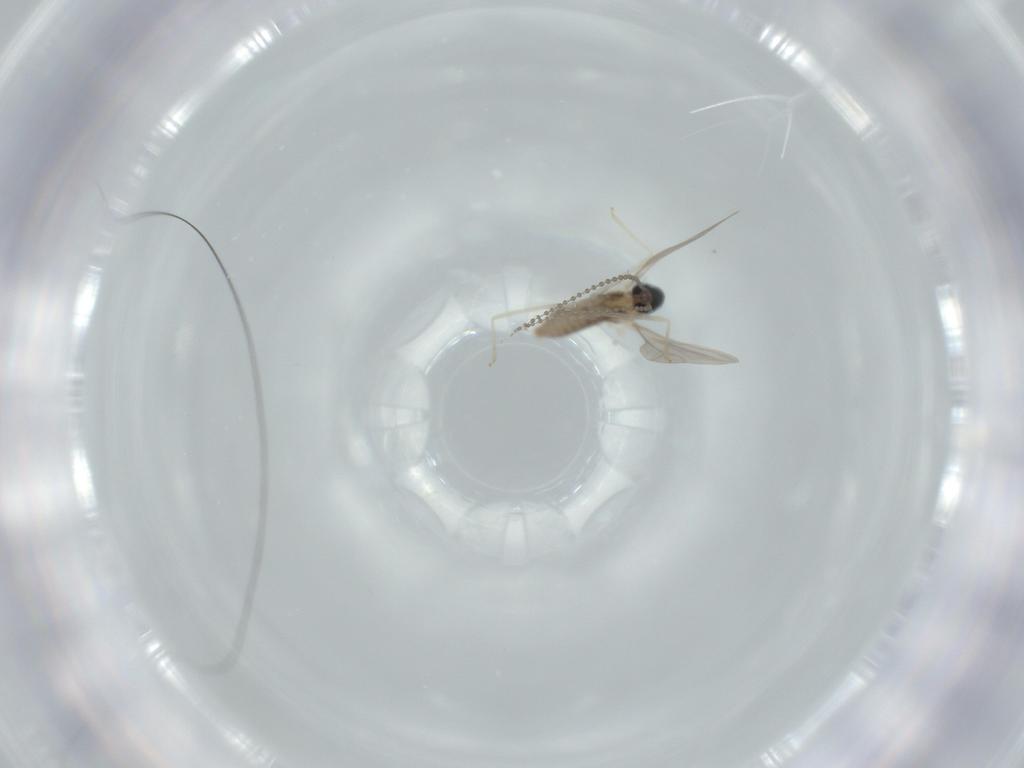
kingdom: Animalia
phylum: Arthropoda
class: Insecta
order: Diptera
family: Cecidomyiidae
